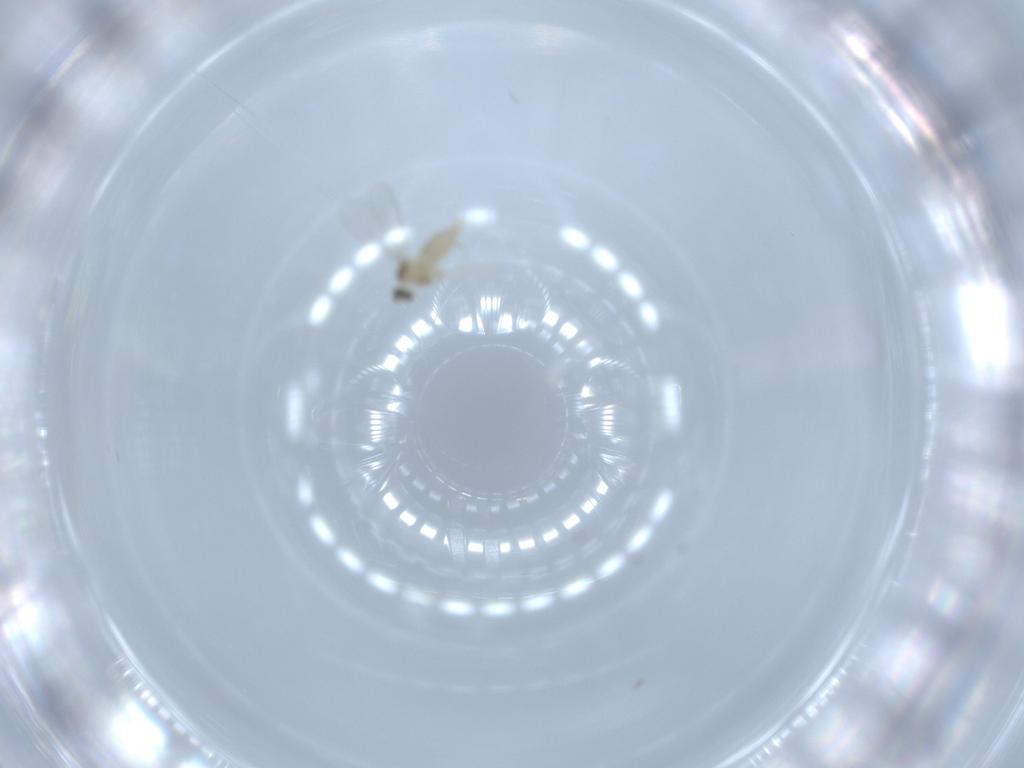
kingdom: Animalia
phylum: Arthropoda
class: Insecta
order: Diptera
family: Cecidomyiidae
